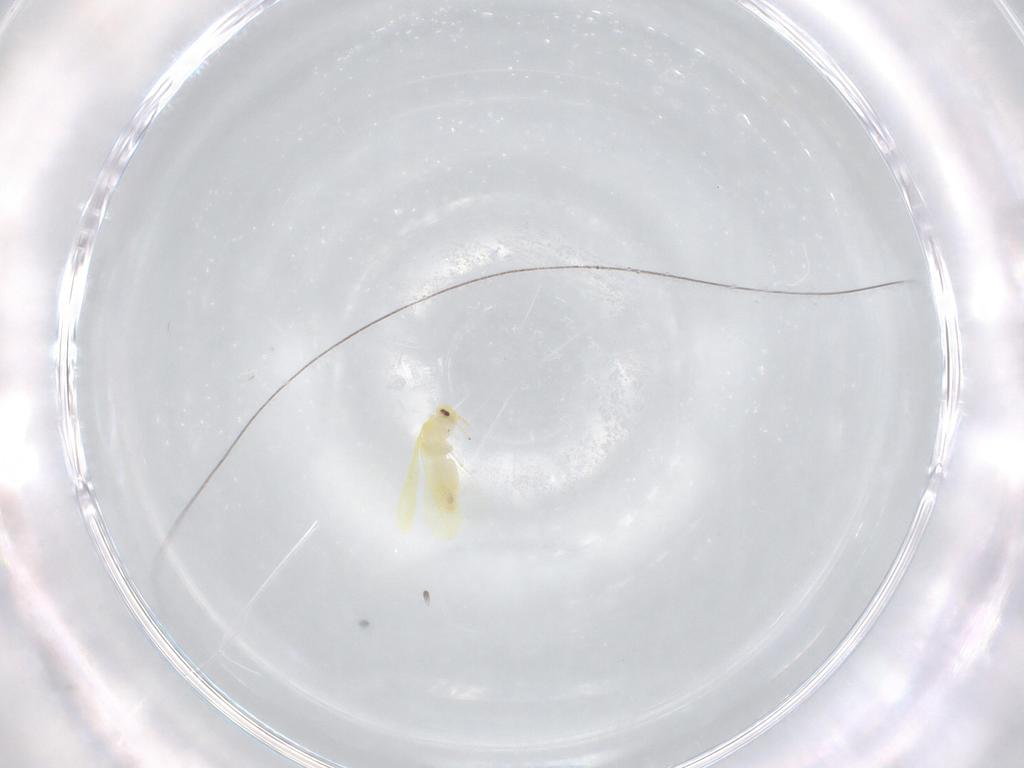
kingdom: Animalia
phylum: Arthropoda
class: Insecta
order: Hemiptera
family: Aleyrodidae
